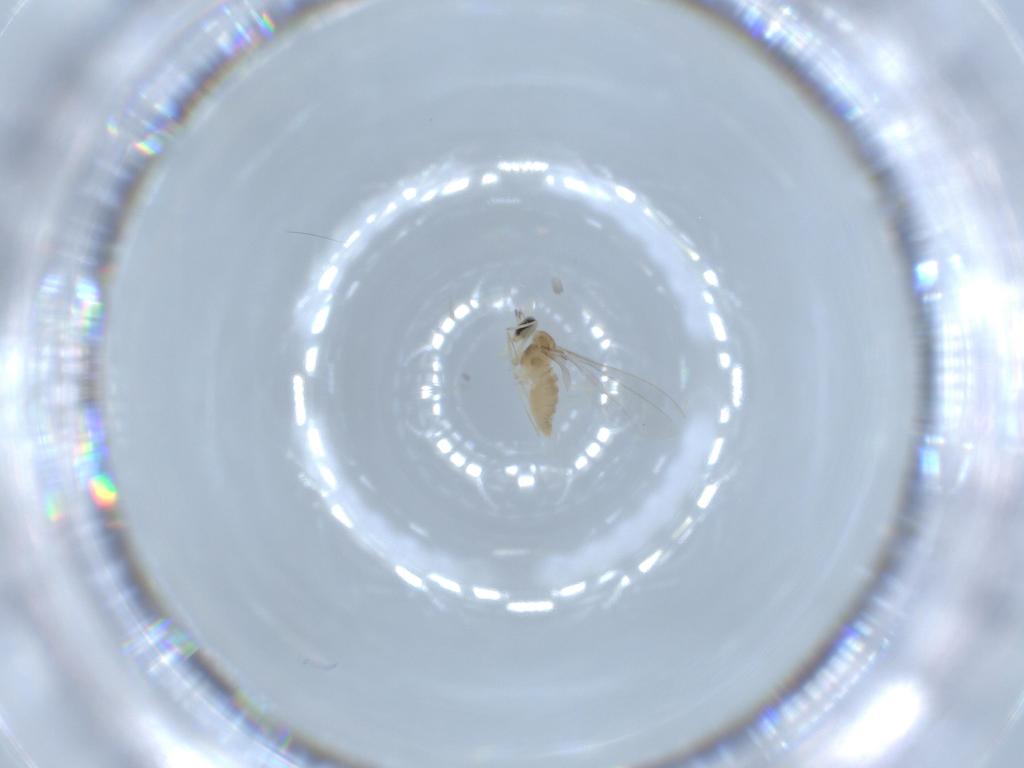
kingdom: Animalia
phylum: Arthropoda
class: Insecta
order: Diptera
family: Cecidomyiidae
